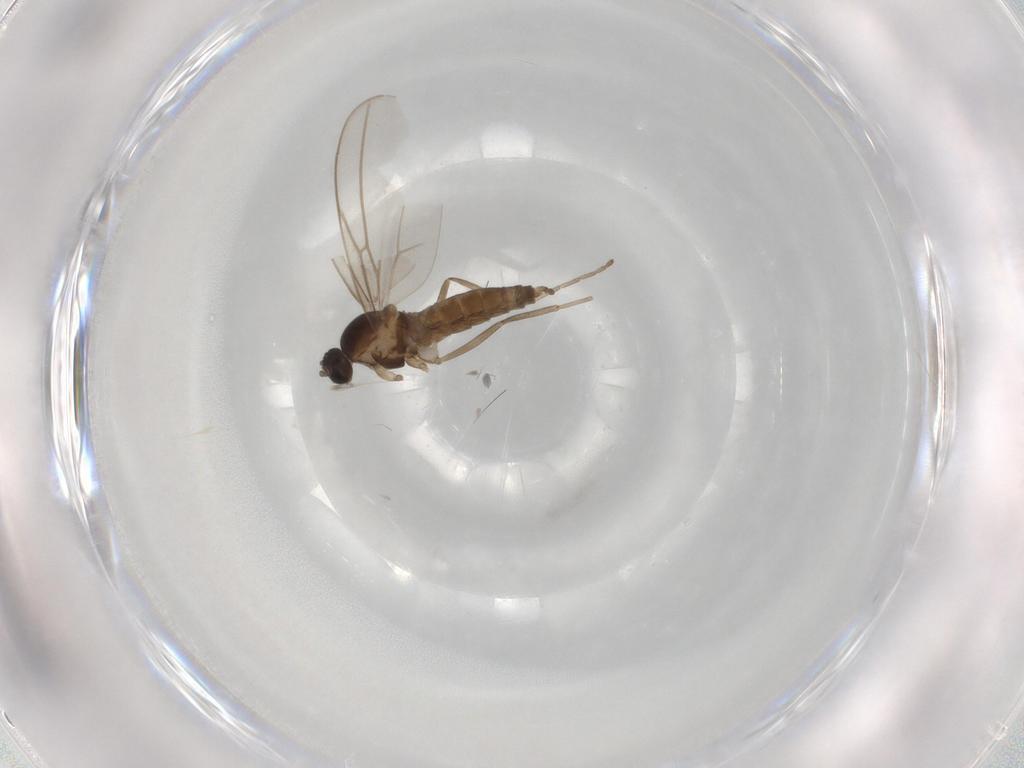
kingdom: Animalia
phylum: Arthropoda
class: Insecta
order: Diptera
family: Cecidomyiidae
